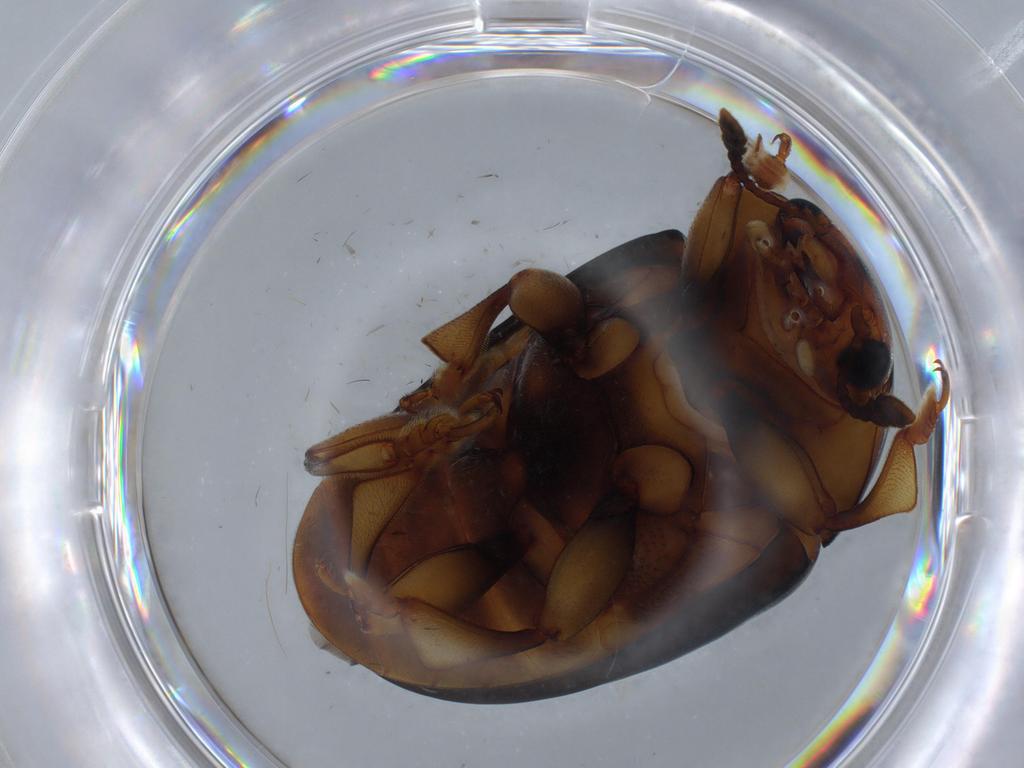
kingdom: Animalia
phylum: Arthropoda
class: Insecta
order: Coleoptera
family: Erotylidae
